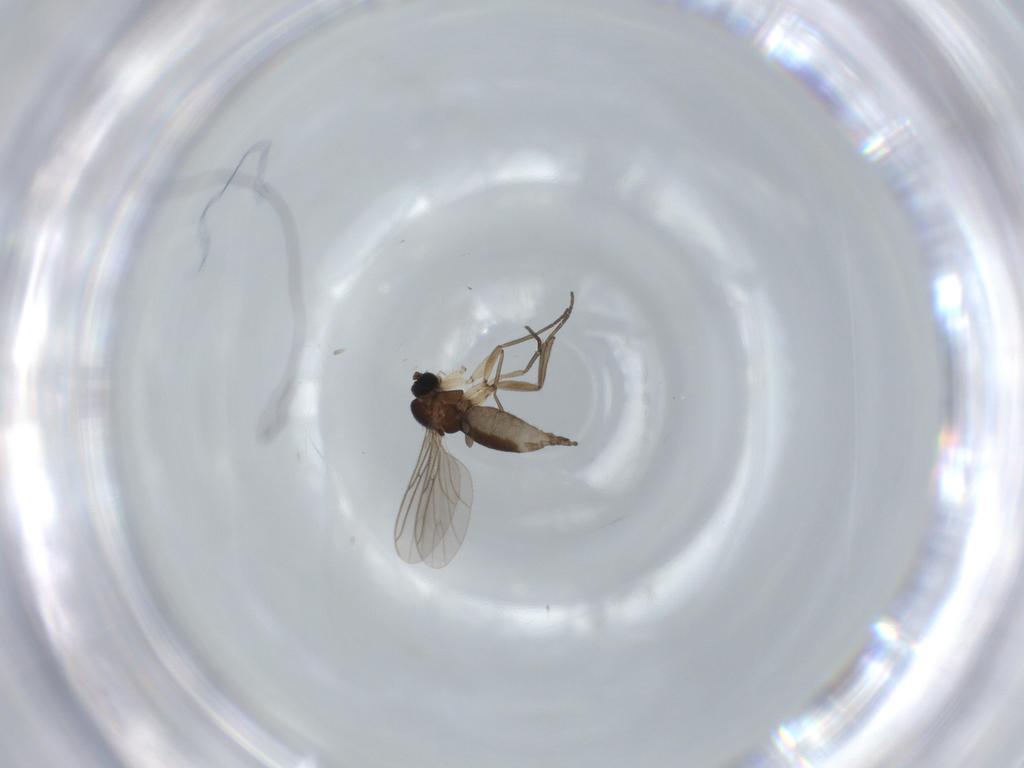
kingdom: Animalia
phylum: Arthropoda
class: Insecta
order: Diptera
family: Sciaridae
